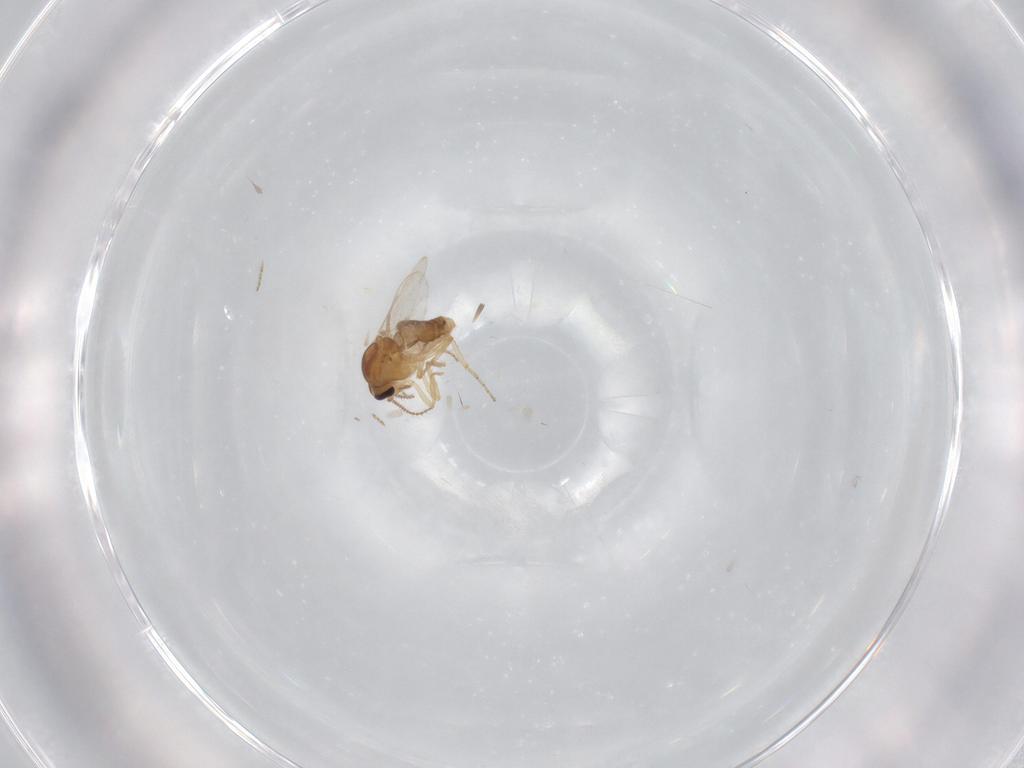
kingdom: Animalia
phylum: Arthropoda
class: Insecta
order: Diptera
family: Ceratopogonidae
